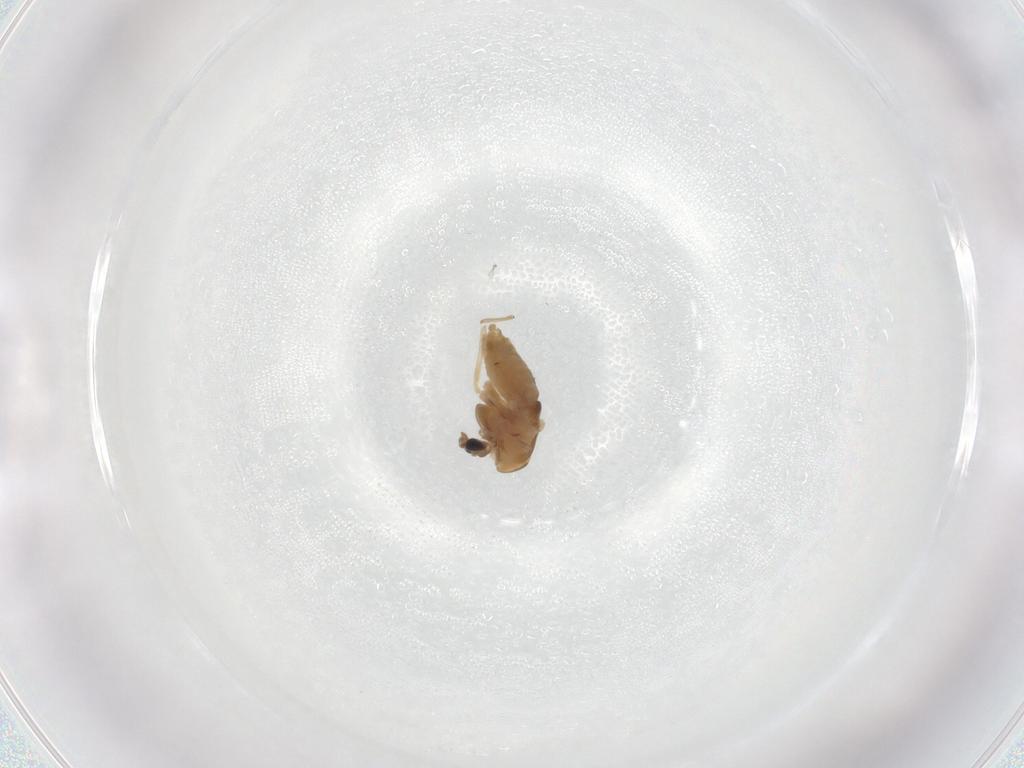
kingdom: Animalia
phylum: Arthropoda
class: Insecta
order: Diptera
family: Chironomidae
